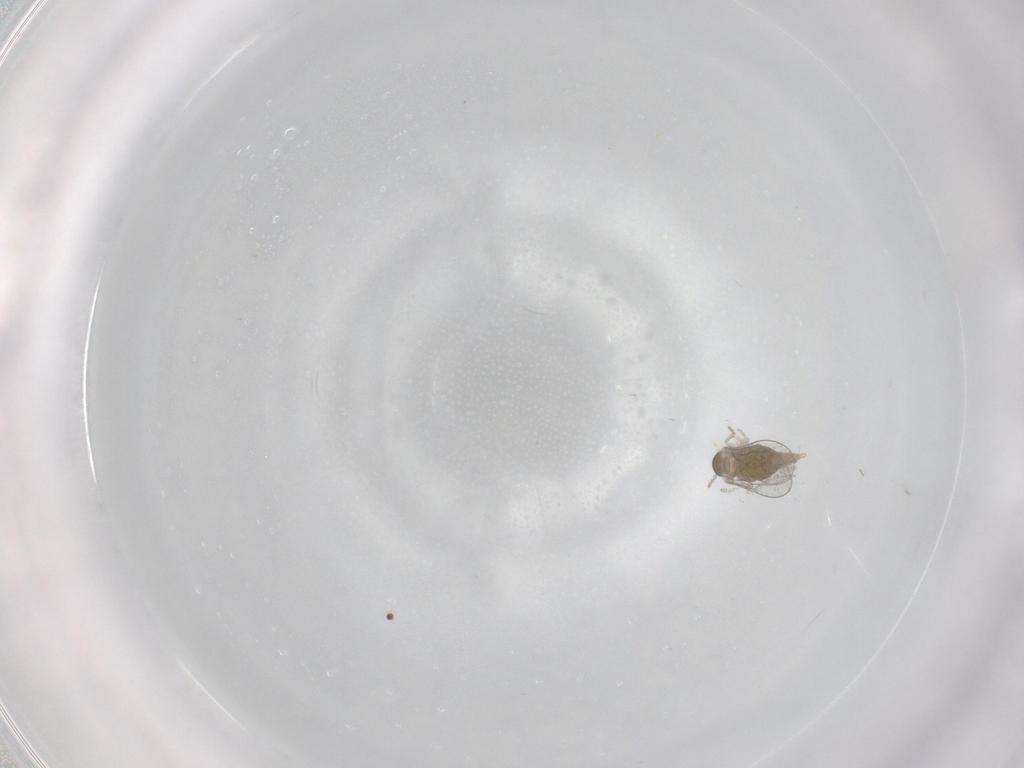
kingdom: Animalia
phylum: Arthropoda
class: Insecta
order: Diptera
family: Cecidomyiidae
